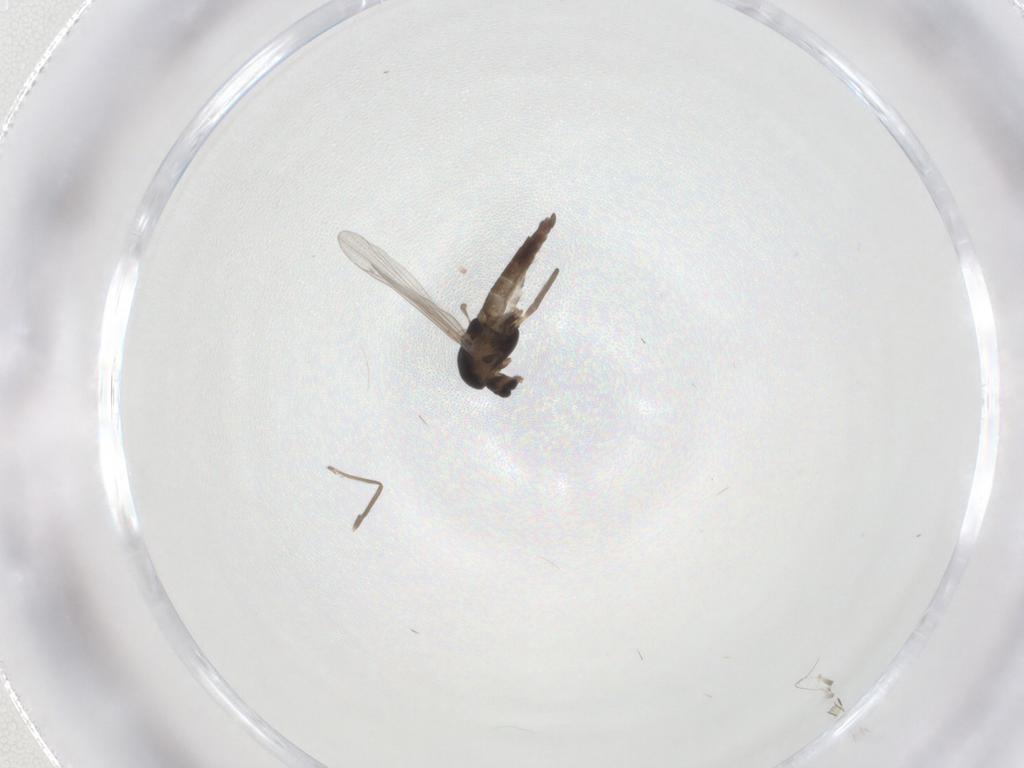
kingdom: Animalia
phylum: Arthropoda
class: Insecta
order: Diptera
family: Chironomidae
